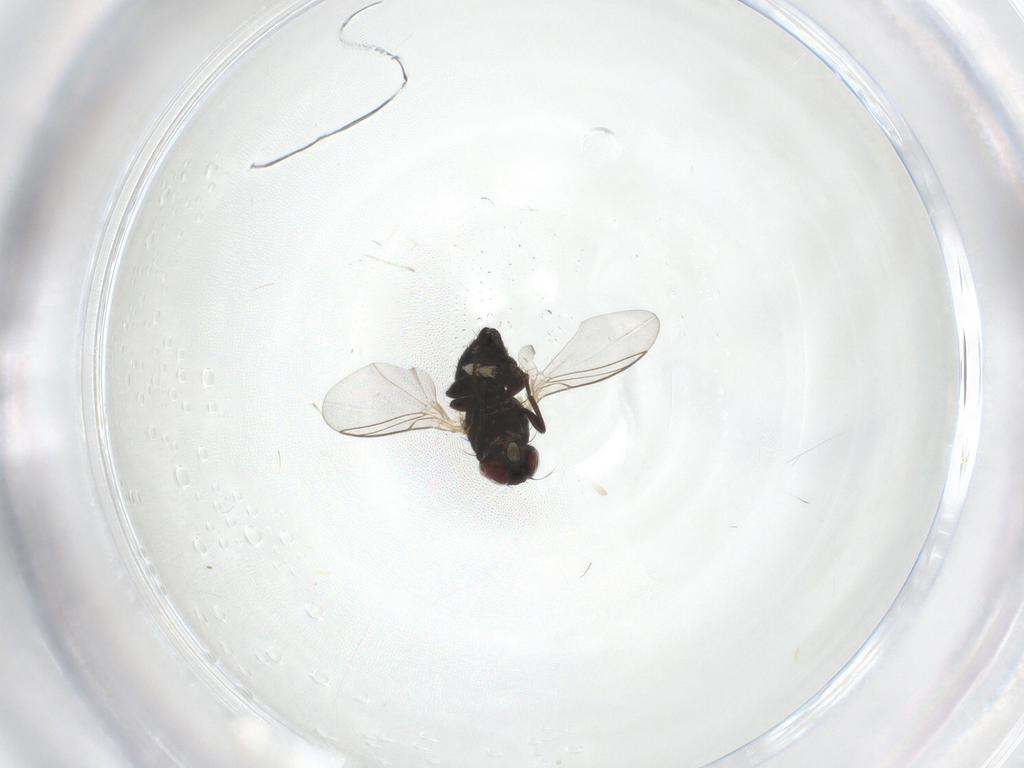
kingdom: Animalia
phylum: Arthropoda
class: Insecta
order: Diptera
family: Agromyzidae
